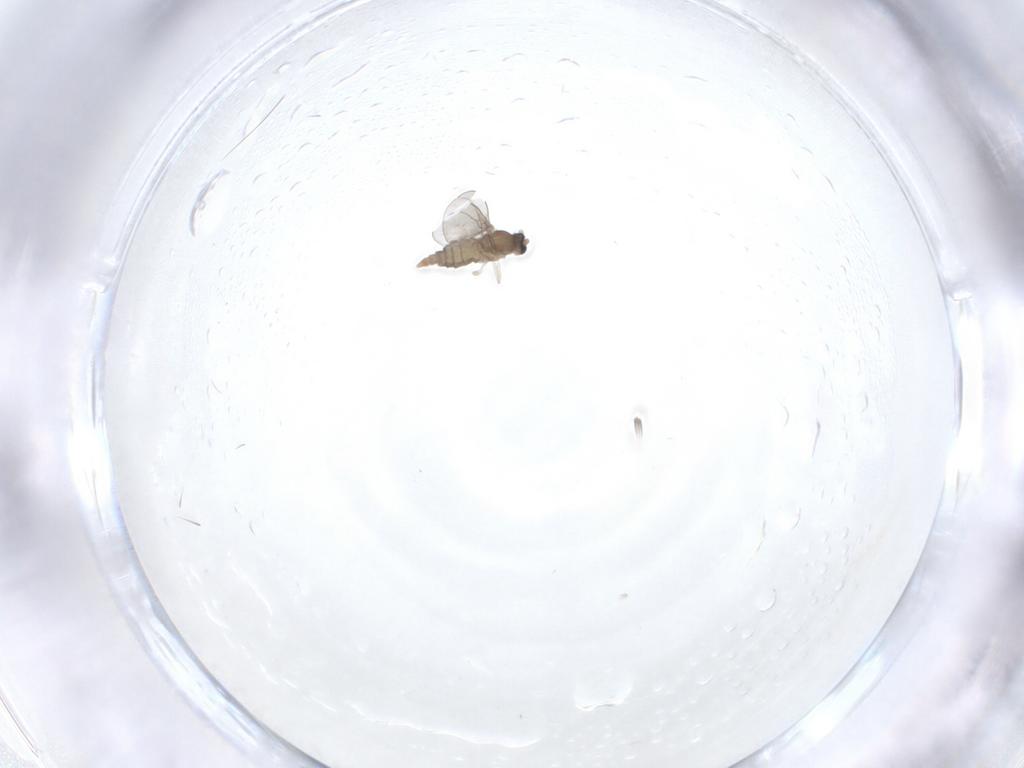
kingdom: Animalia
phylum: Arthropoda
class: Insecta
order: Diptera
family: Cecidomyiidae
